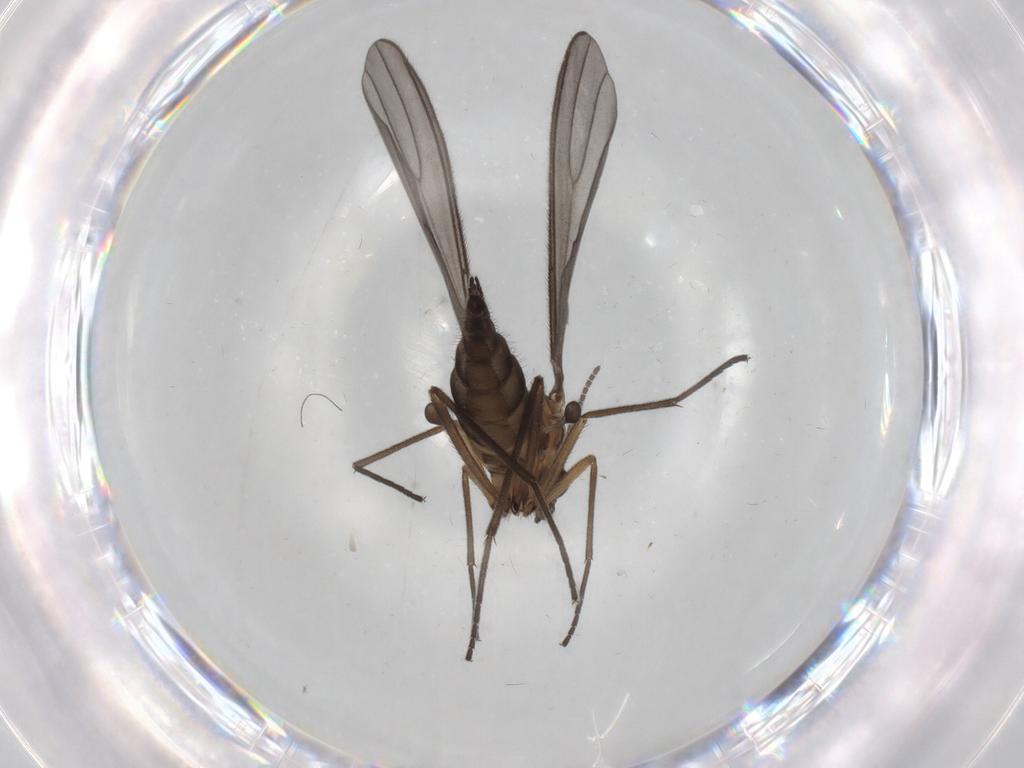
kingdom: Animalia
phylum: Arthropoda
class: Insecta
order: Diptera
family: Sciaridae
